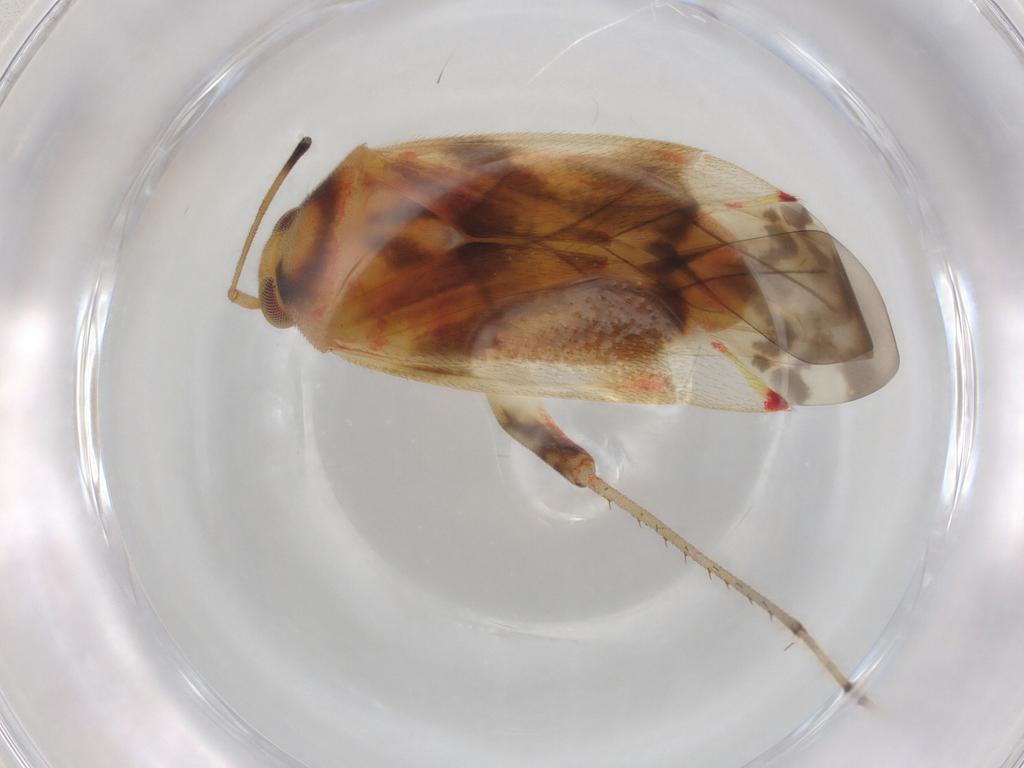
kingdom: Animalia
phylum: Arthropoda
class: Insecta
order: Hemiptera
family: Miridae
